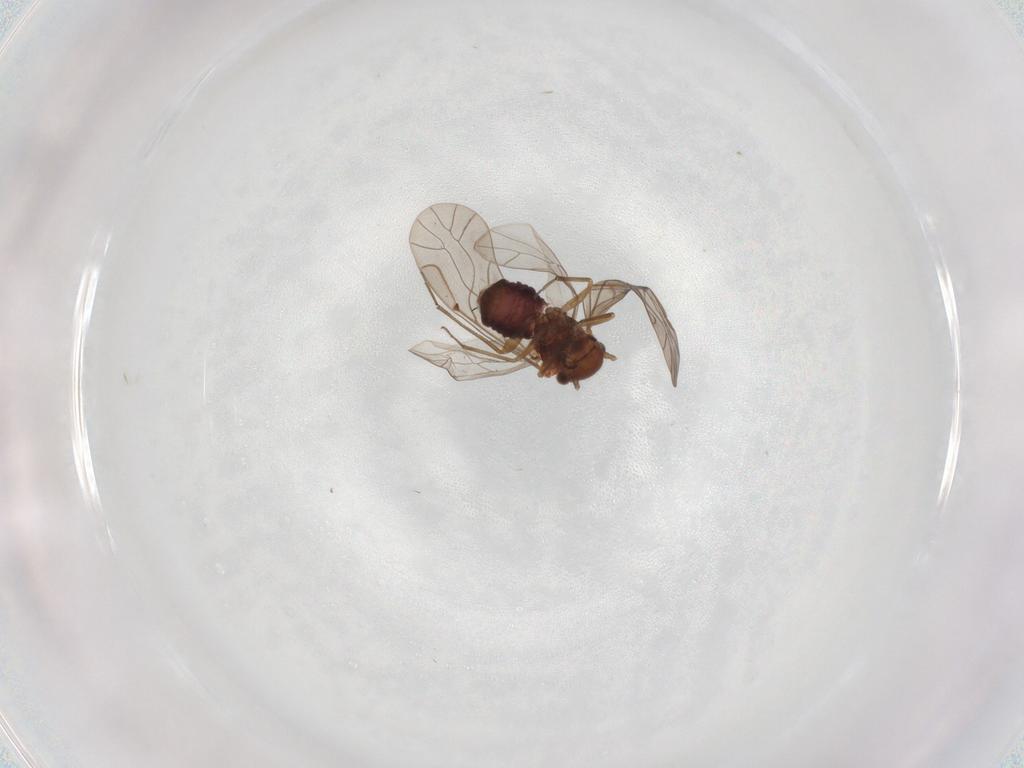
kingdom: Animalia
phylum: Arthropoda
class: Insecta
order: Psocodea
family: Lachesillidae
